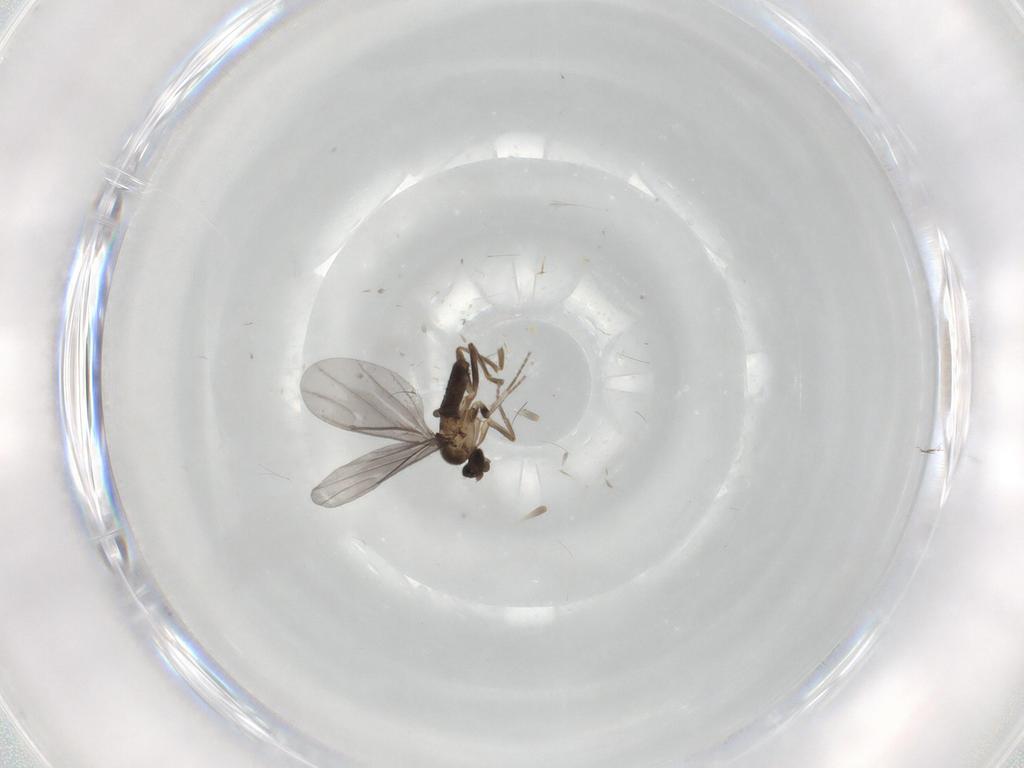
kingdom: Animalia
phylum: Arthropoda
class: Insecta
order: Diptera
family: Phoridae
